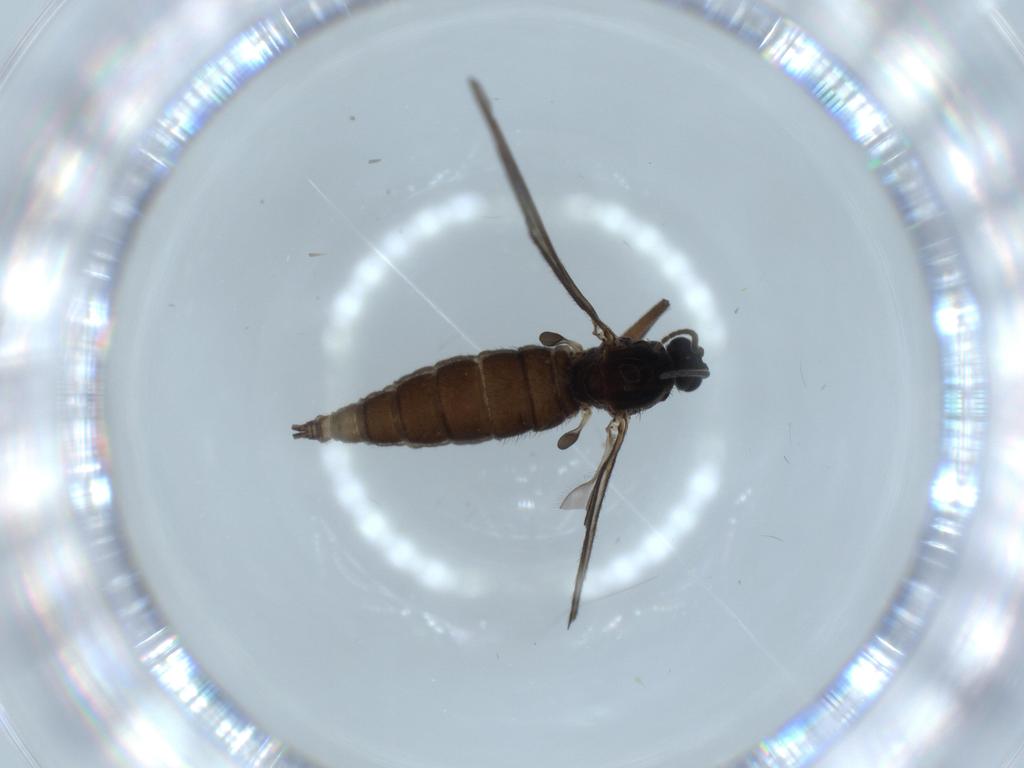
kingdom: Animalia
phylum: Arthropoda
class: Insecta
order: Diptera
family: Sciaridae
